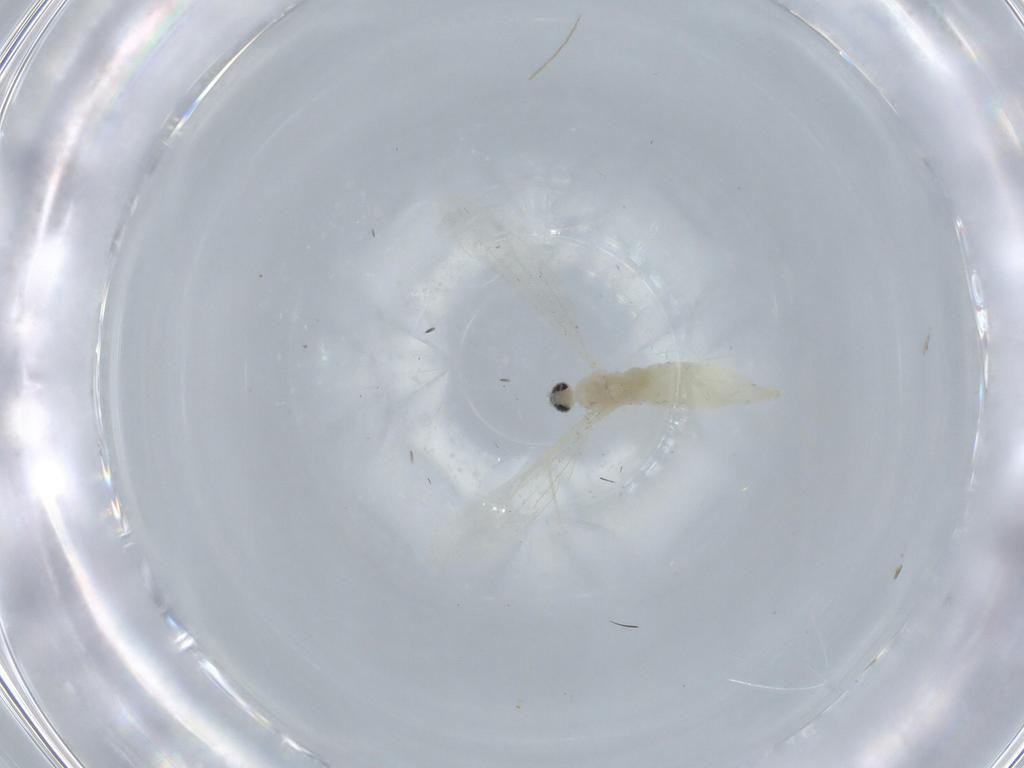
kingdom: Animalia
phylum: Arthropoda
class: Insecta
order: Diptera
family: Cecidomyiidae
